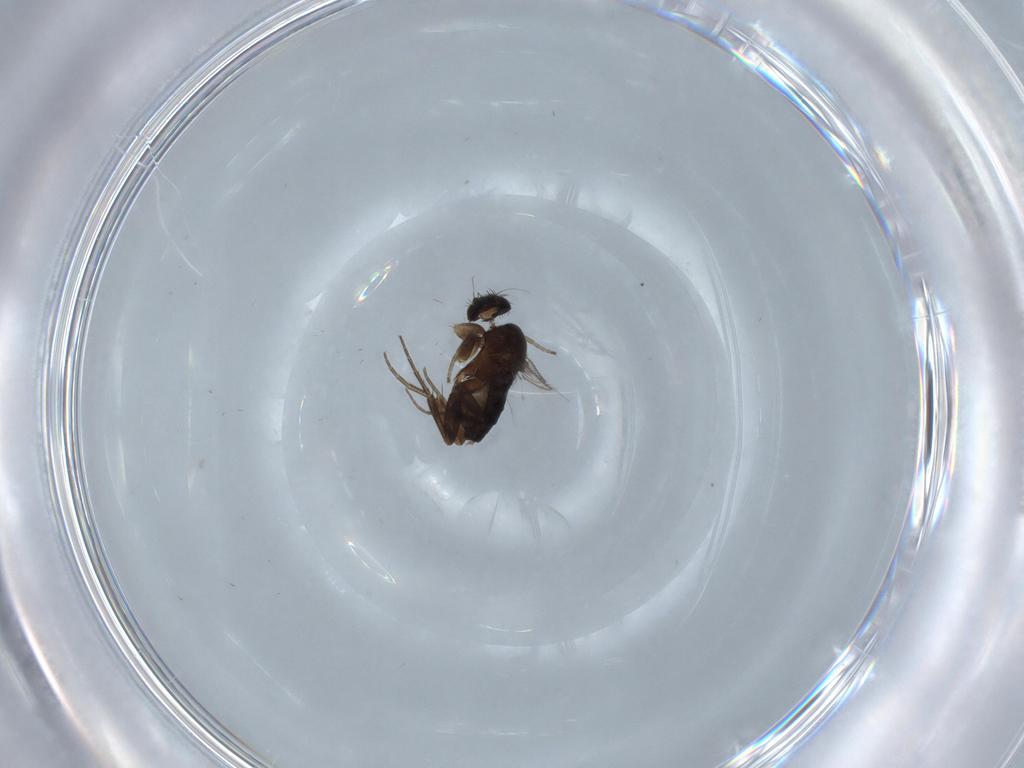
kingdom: Animalia
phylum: Arthropoda
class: Insecta
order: Diptera
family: Phoridae
